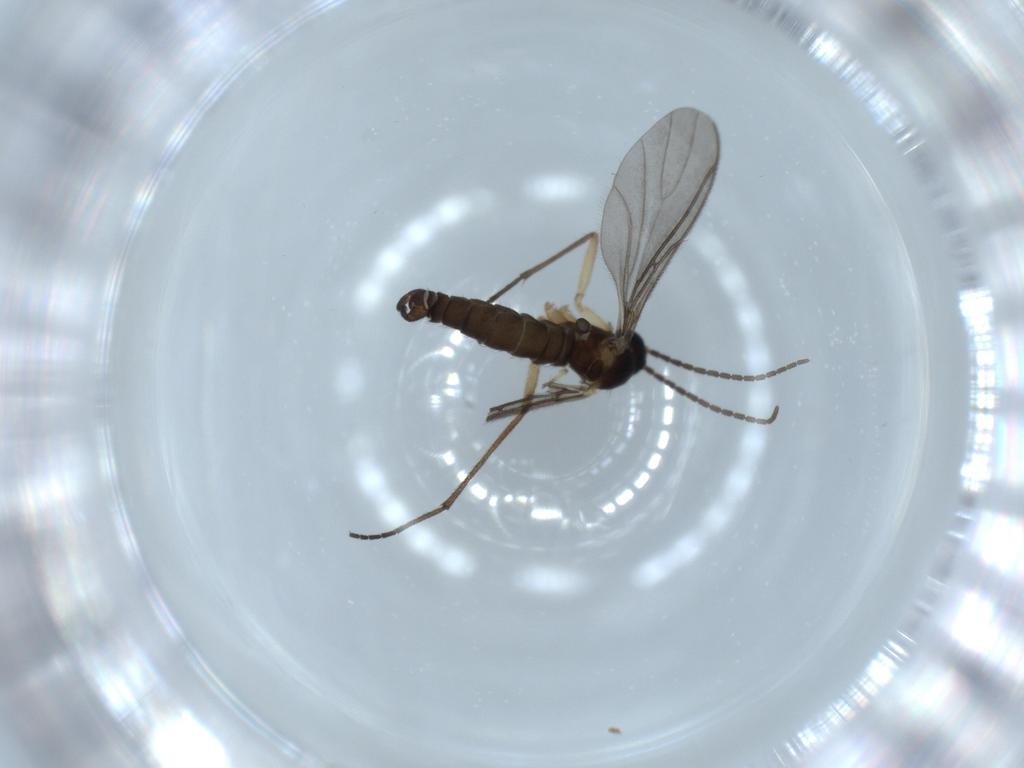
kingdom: Animalia
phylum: Arthropoda
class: Insecta
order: Diptera
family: Sciaridae
